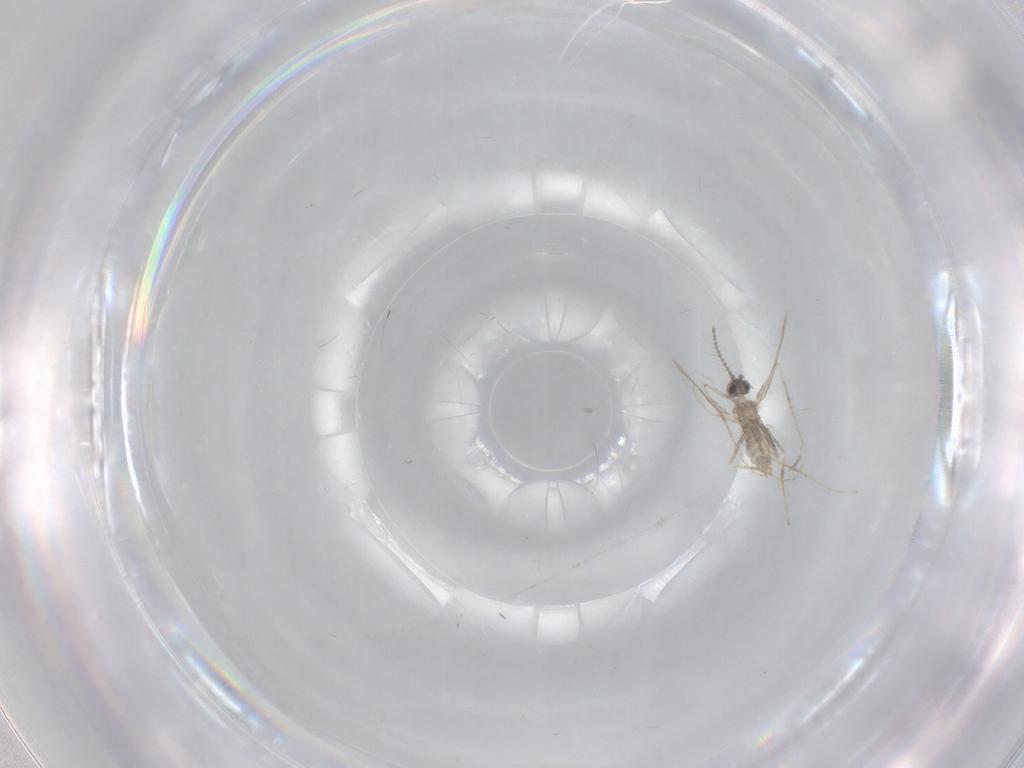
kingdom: Animalia
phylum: Arthropoda
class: Insecta
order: Diptera
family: Cecidomyiidae
